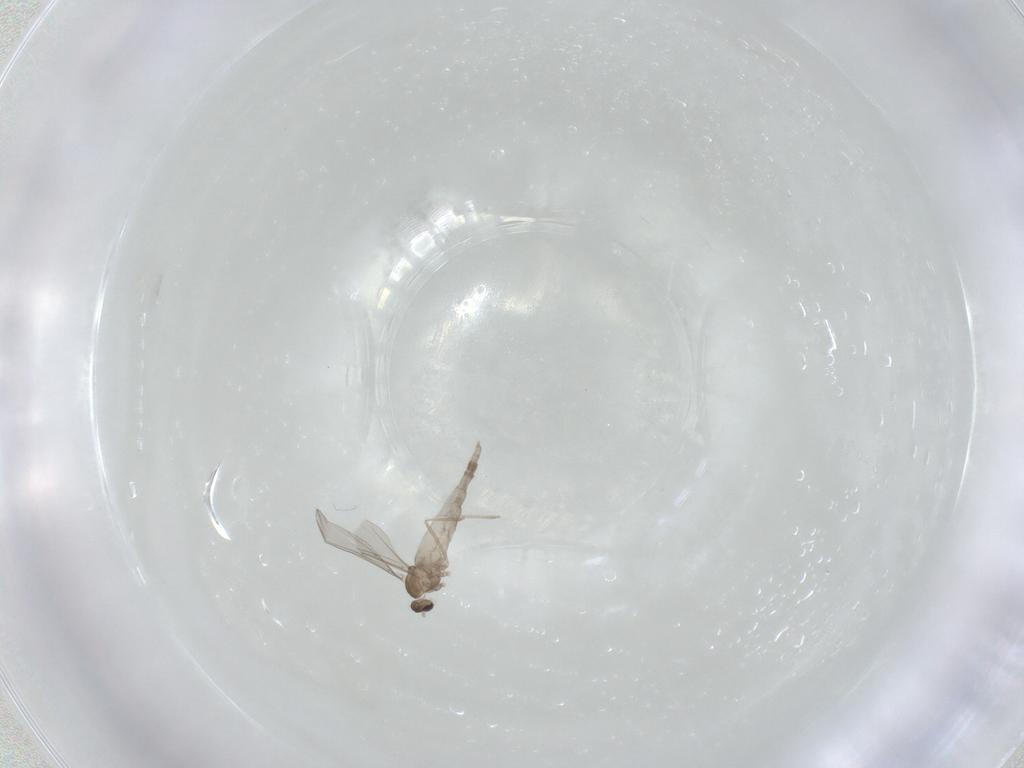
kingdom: Animalia
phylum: Arthropoda
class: Insecta
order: Diptera
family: Cecidomyiidae
